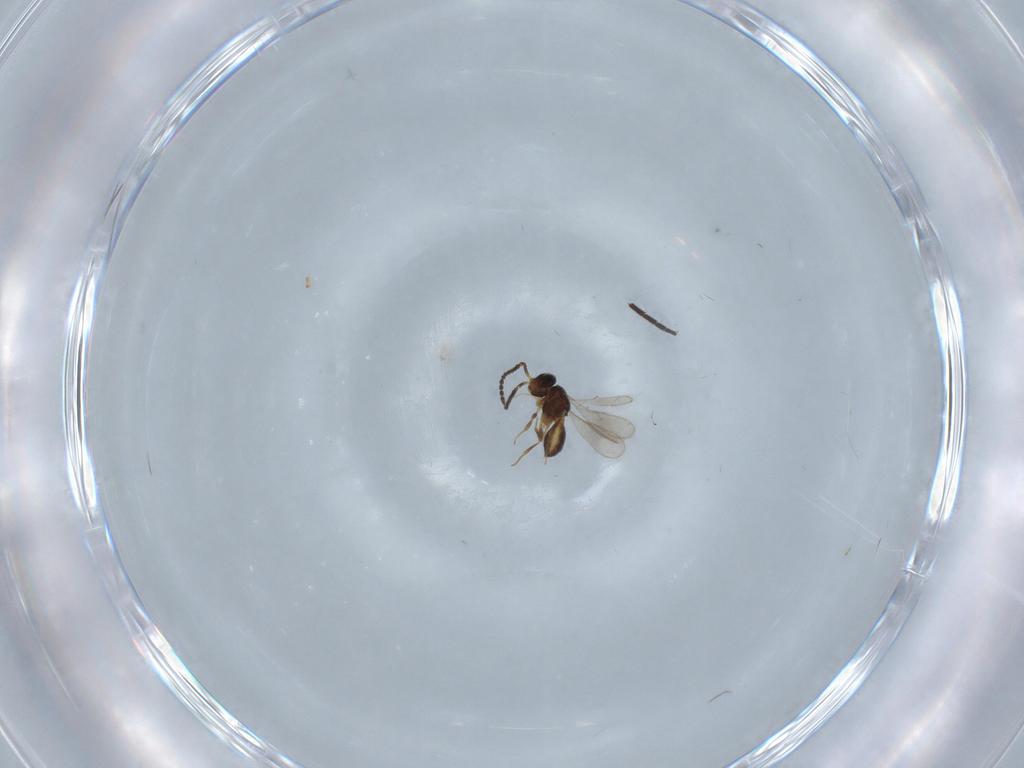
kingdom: Animalia
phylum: Arthropoda
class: Insecta
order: Hymenoptera
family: Scelionidae
